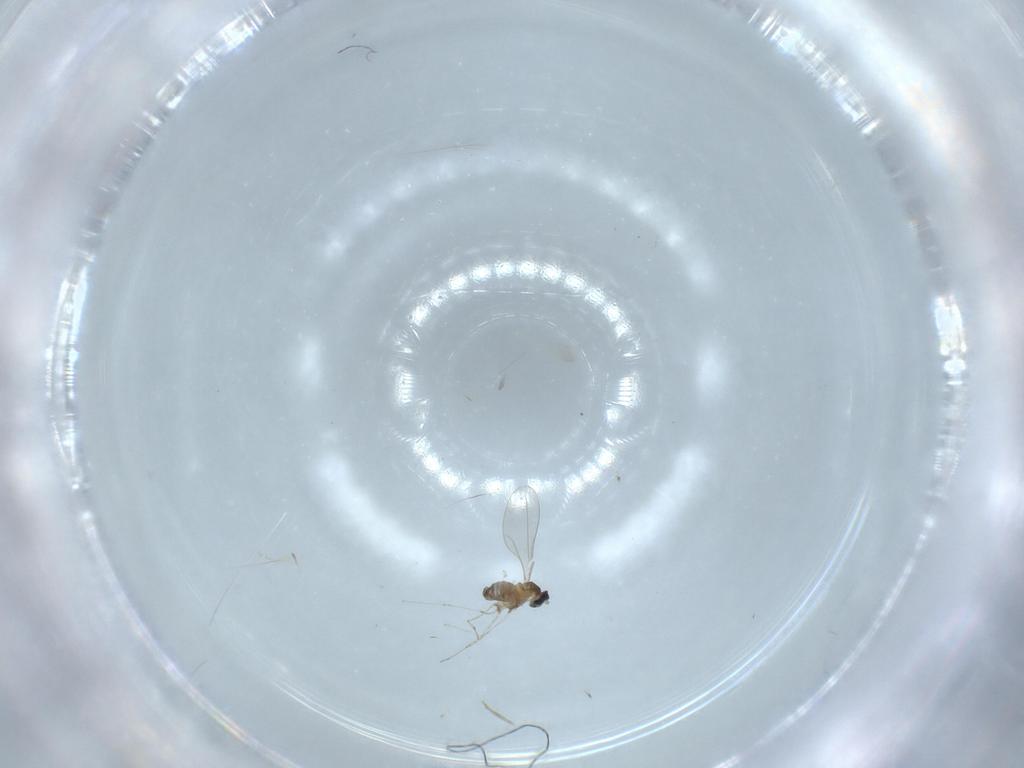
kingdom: Animalia
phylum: Arthropoda
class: Insecta
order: Diptera
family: Cecidomyiidae
